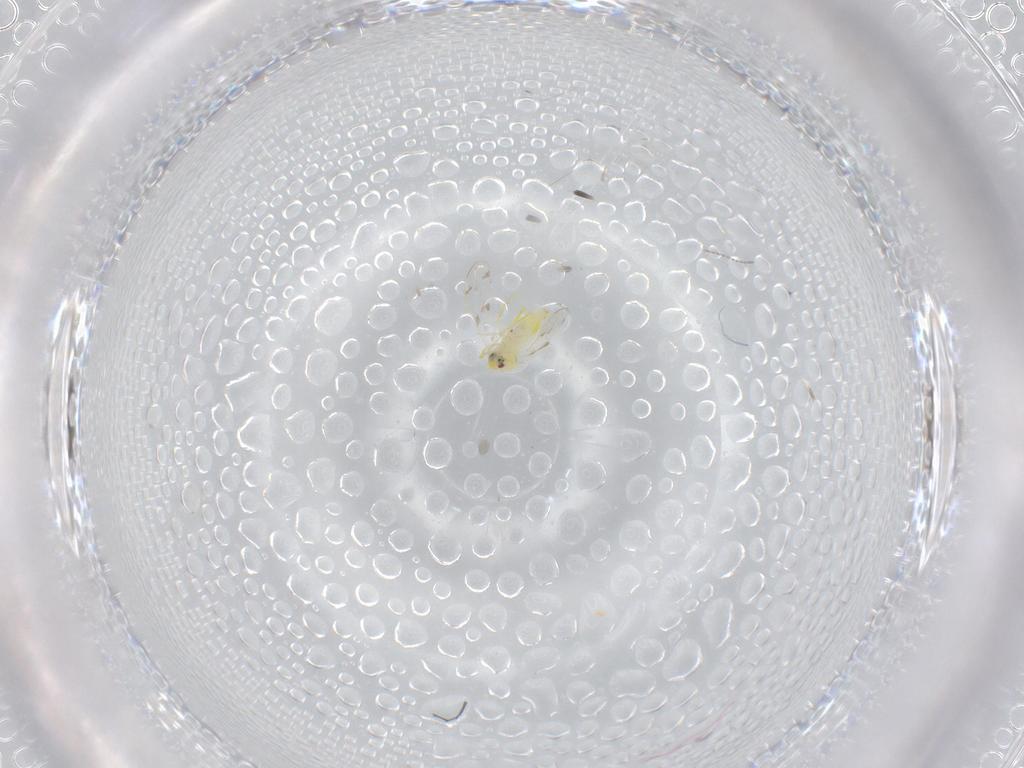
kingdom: Animalia
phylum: Arthropoda
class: Insecta
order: Hemiptera
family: Aleyrodidae
